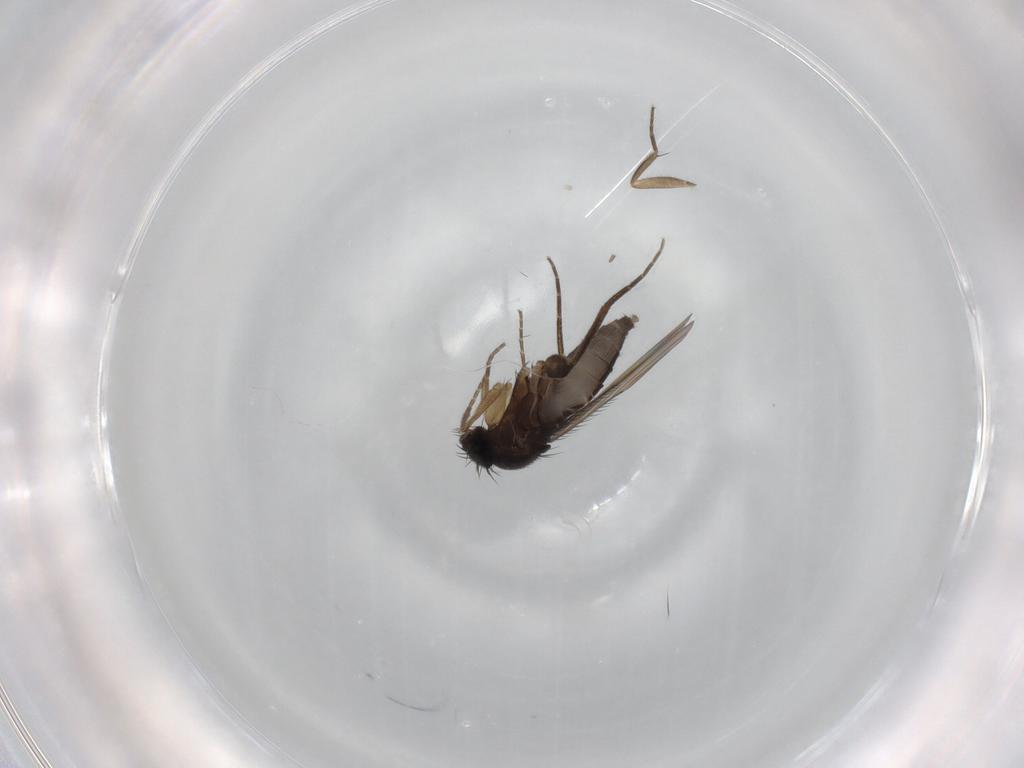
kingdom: Animalia
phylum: Arthropoda
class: Insecta
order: Diptera
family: Phoridae
